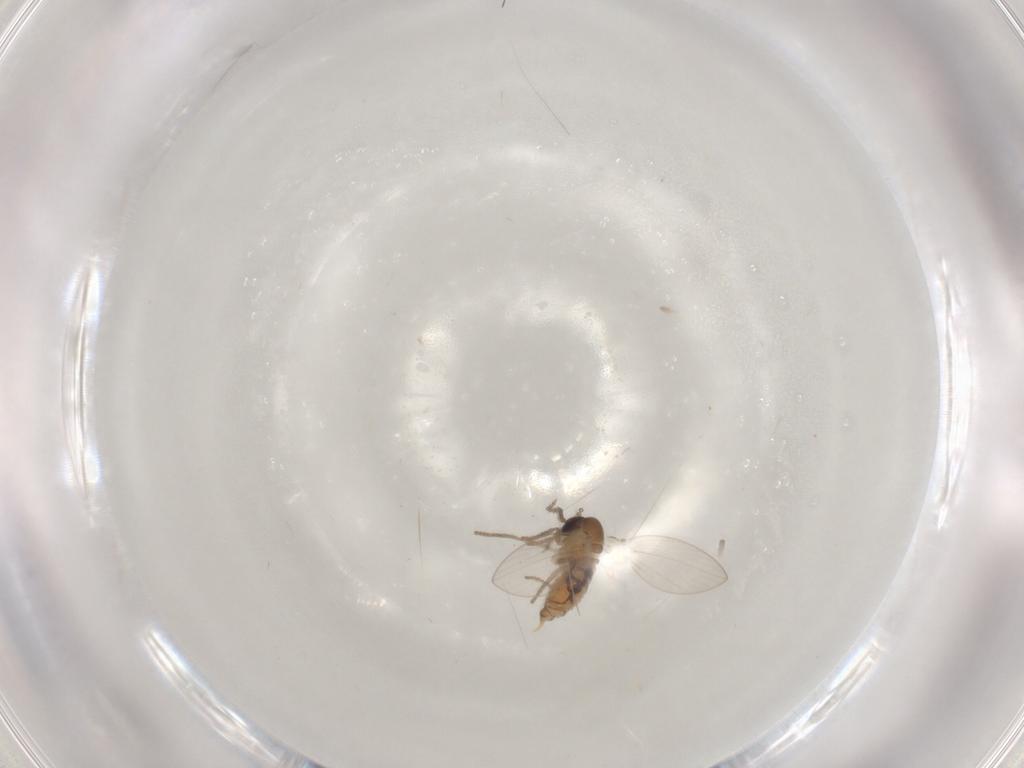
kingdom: Animalia
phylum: Arthropoda
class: Insecta
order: Diptera
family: Psychodidae
